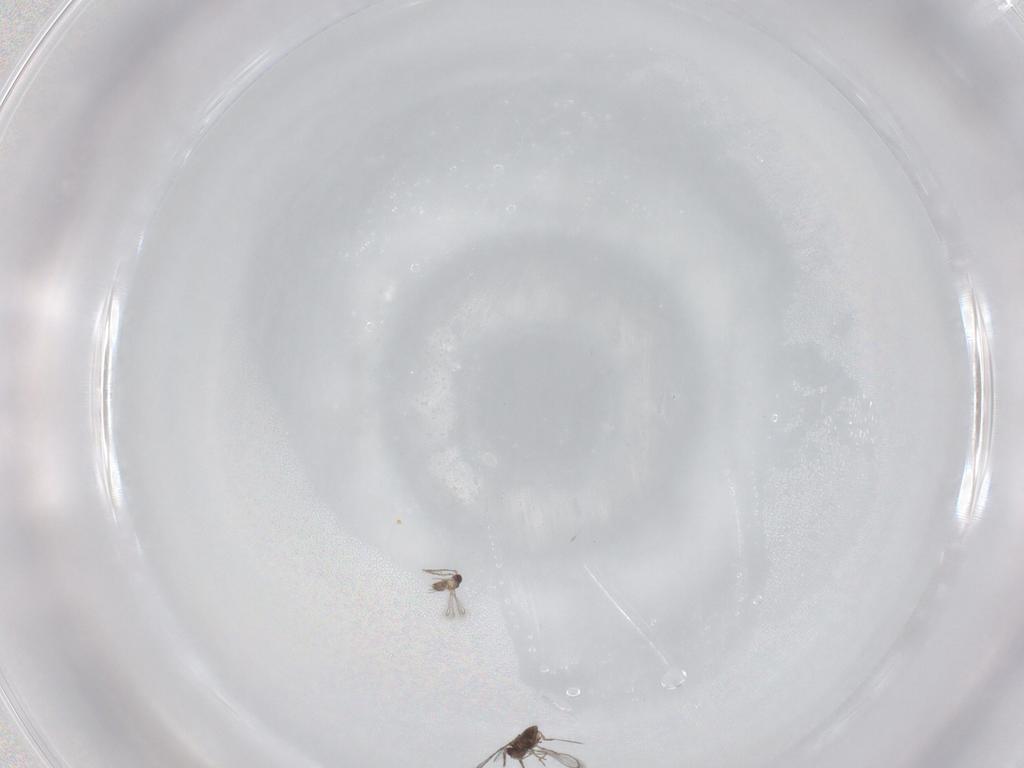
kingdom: Animalia
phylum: Arthropoda
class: Insecta
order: Hymenoptera
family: Mymaridae
